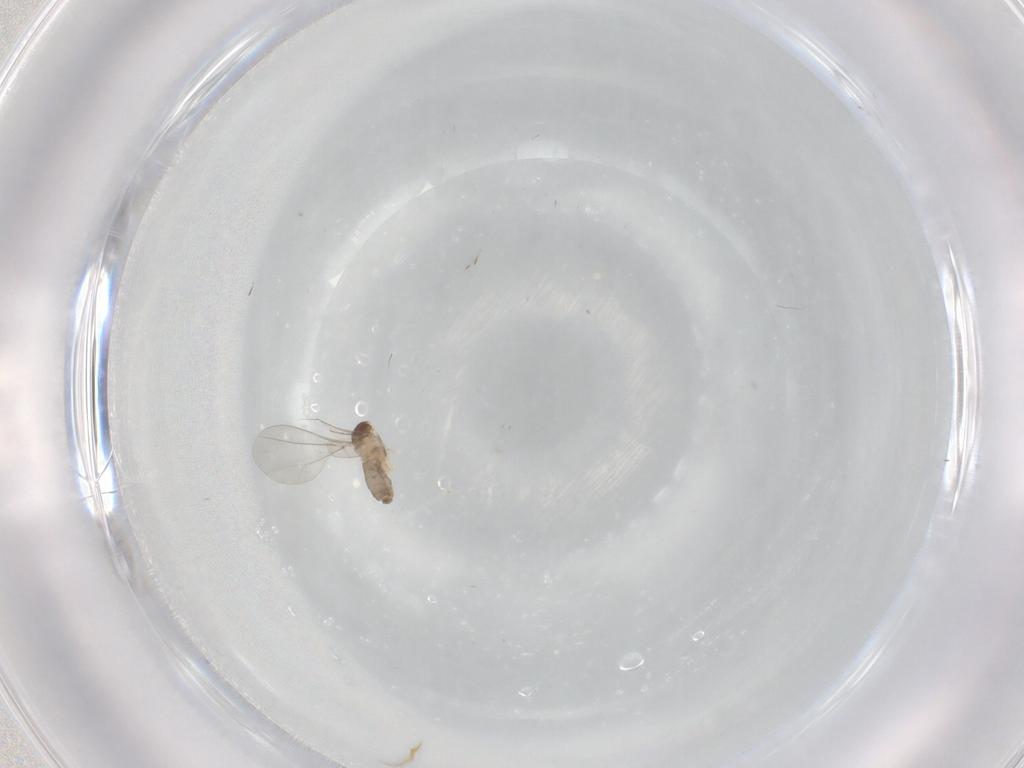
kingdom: Animalia
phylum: Arthropoda
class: Insecta
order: Diptera
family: Cecidomyiidae
